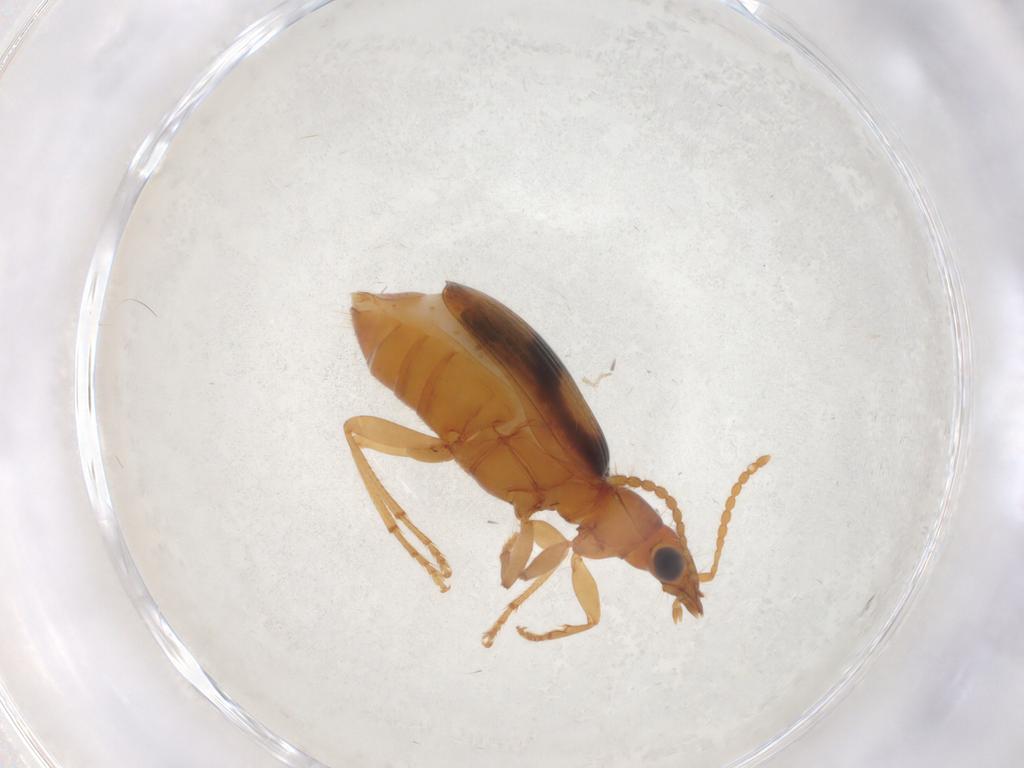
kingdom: Animalia
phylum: Arthropoda
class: Insecta
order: Coleoptera
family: Carabidae
